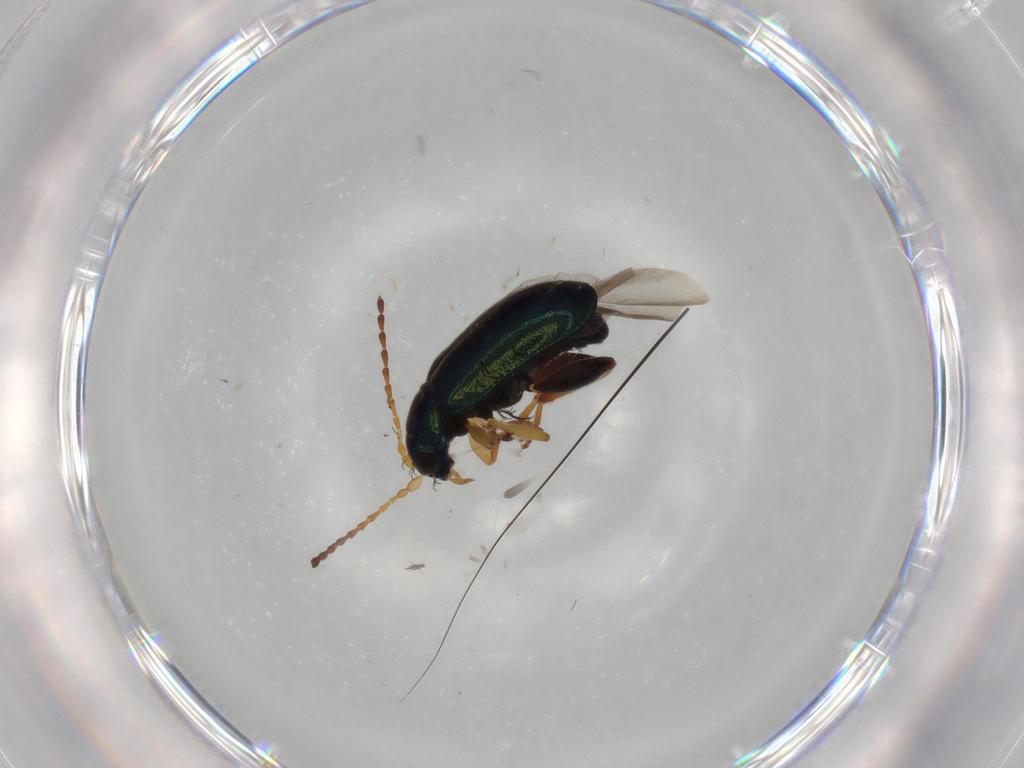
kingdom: Animalia
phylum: Arthropoda
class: Insecta
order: Coleoptera
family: Chrysomelidae
